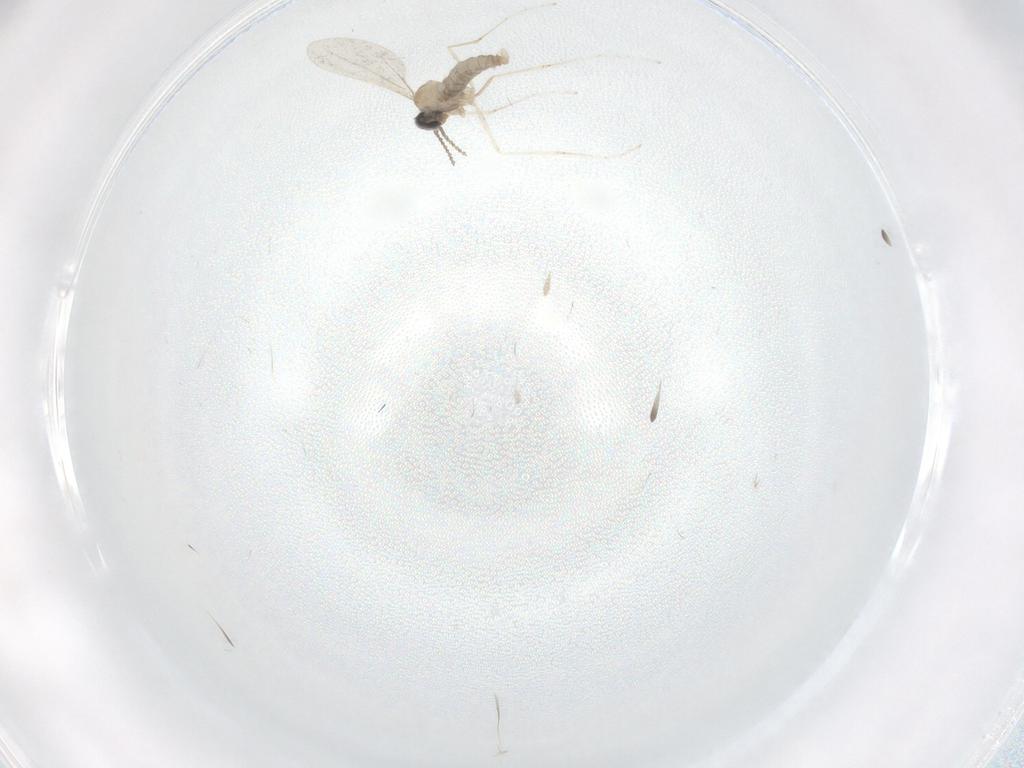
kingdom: Animalia
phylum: Arthropoda
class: Insecta
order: Diptera
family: Cecidomyiidae
